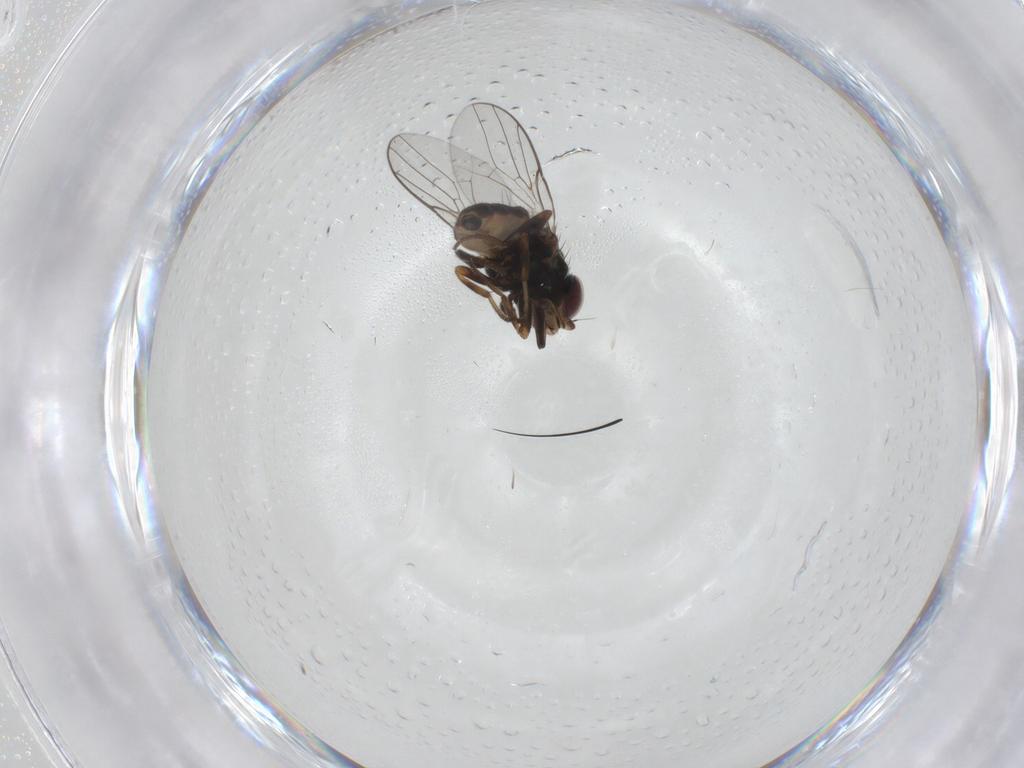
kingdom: Animalia
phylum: Arthropoda
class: Insecta
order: Diptera
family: Chloropidae
